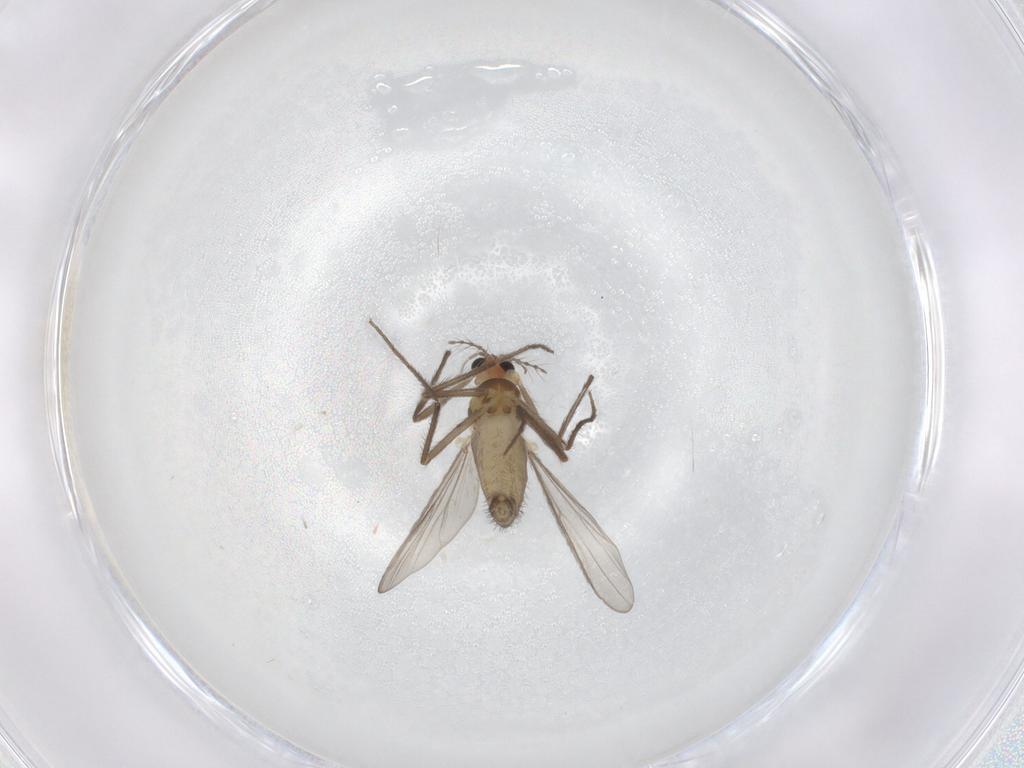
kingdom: Animalia
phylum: Arthropoda
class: Insecta
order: Diptera
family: Chironomidae
